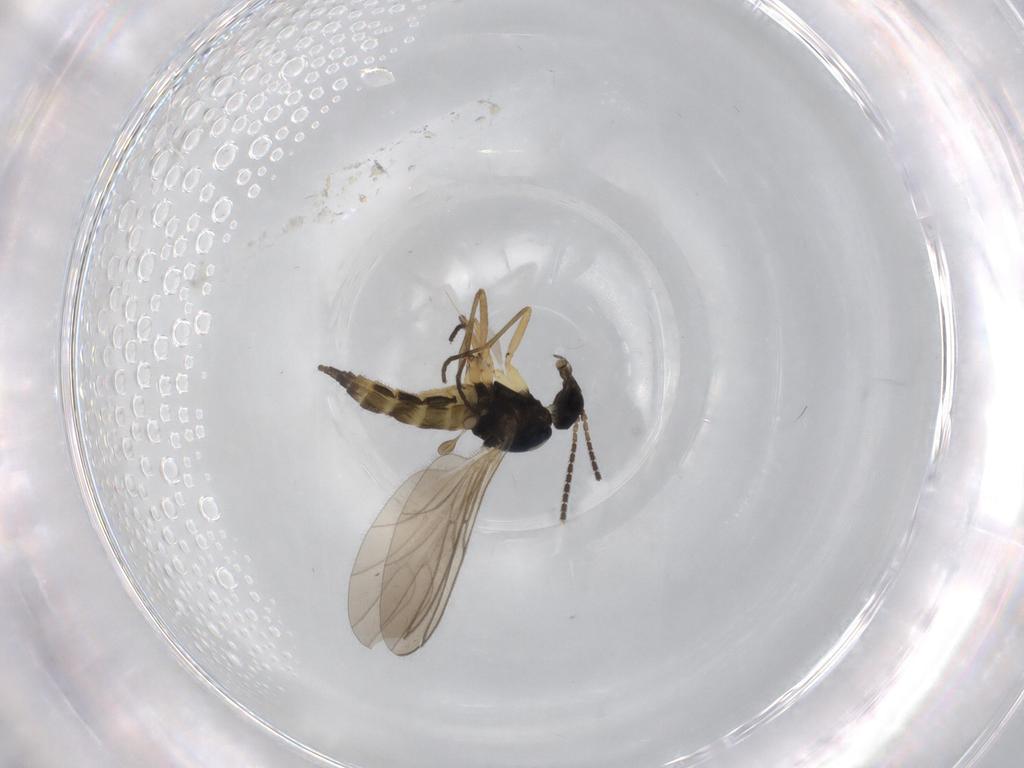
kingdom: Animalia
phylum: Arthropoda
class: Insecta
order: Diptera
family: Sciaridae
